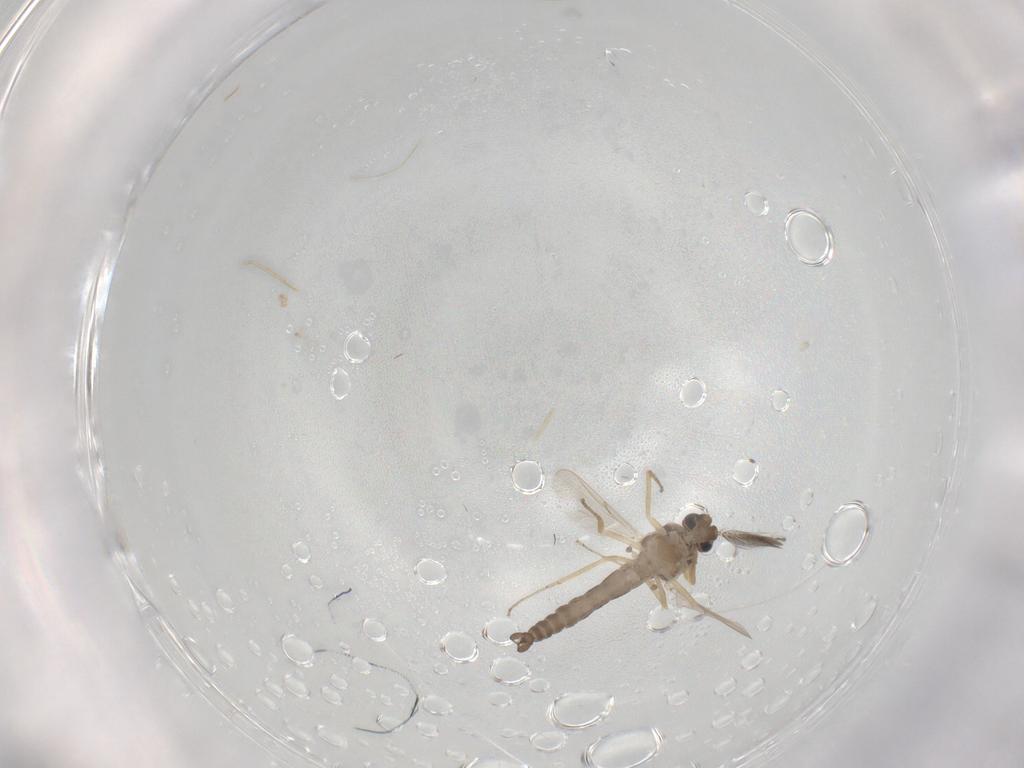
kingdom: Animalia
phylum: Arthropoda
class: Insecta
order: Diptera
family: Ceratopogonidae
